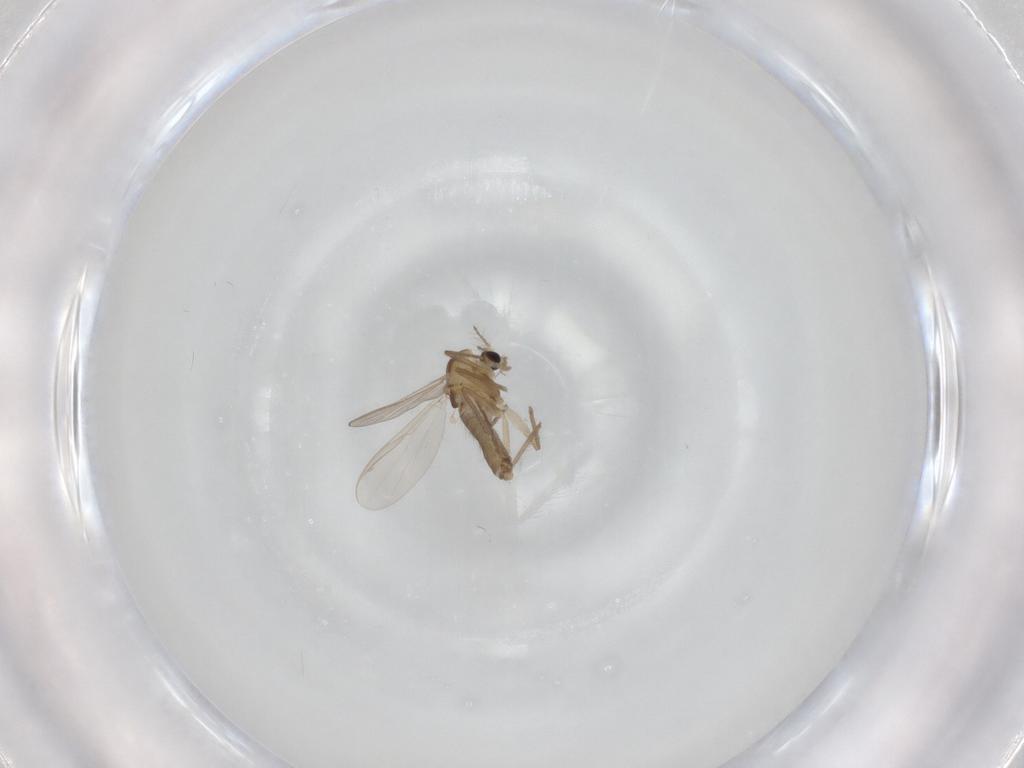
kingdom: Animalia
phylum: Arthropoda
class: Insecta
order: Diptera
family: Chironomidae
